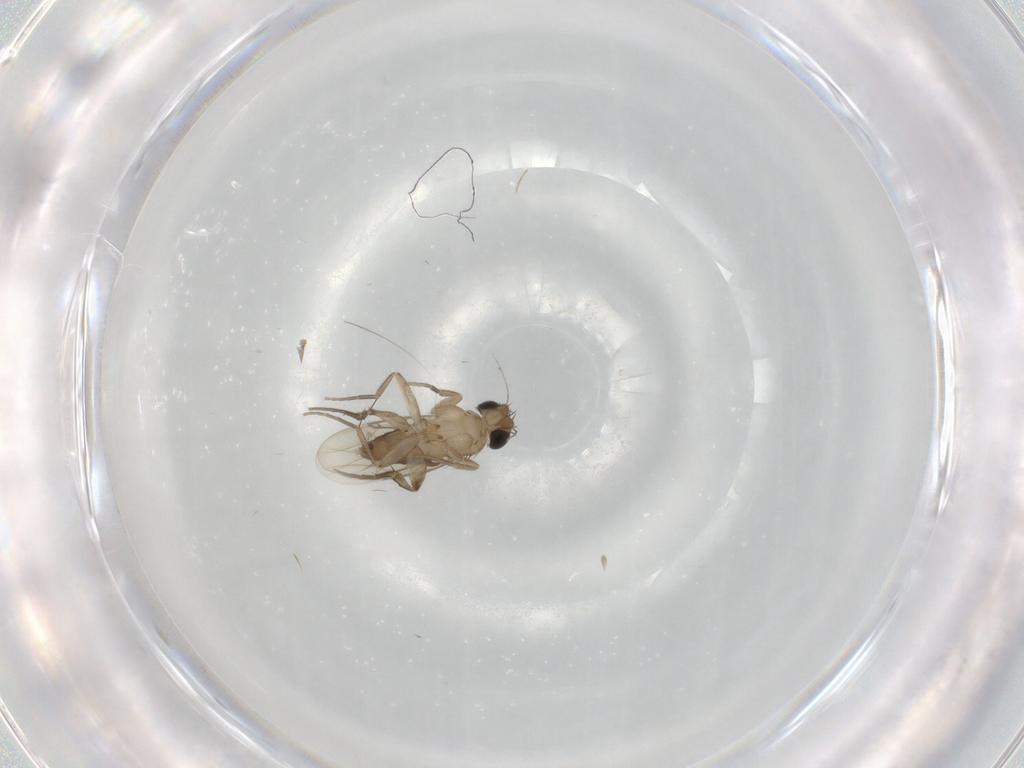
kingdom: Animalia
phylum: Arthropoda
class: Insecta
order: Diptera
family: Phoridae
